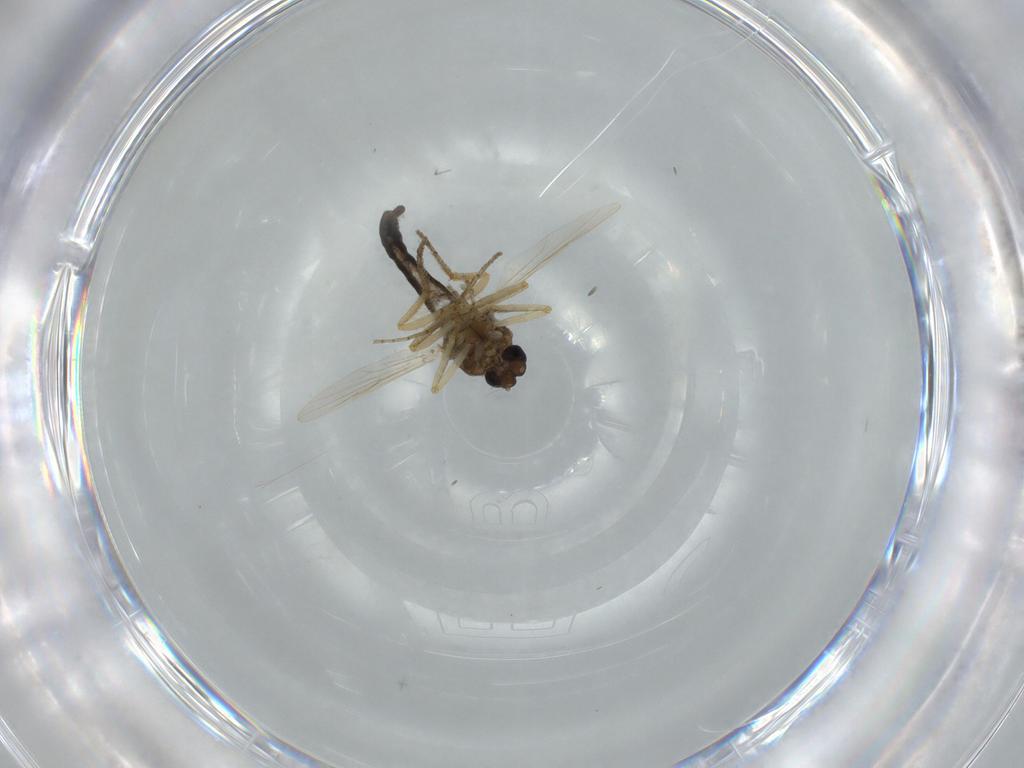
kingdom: Animalia
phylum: Arthropoda
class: Insecta
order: Diptera
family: Ceratopogonidae
